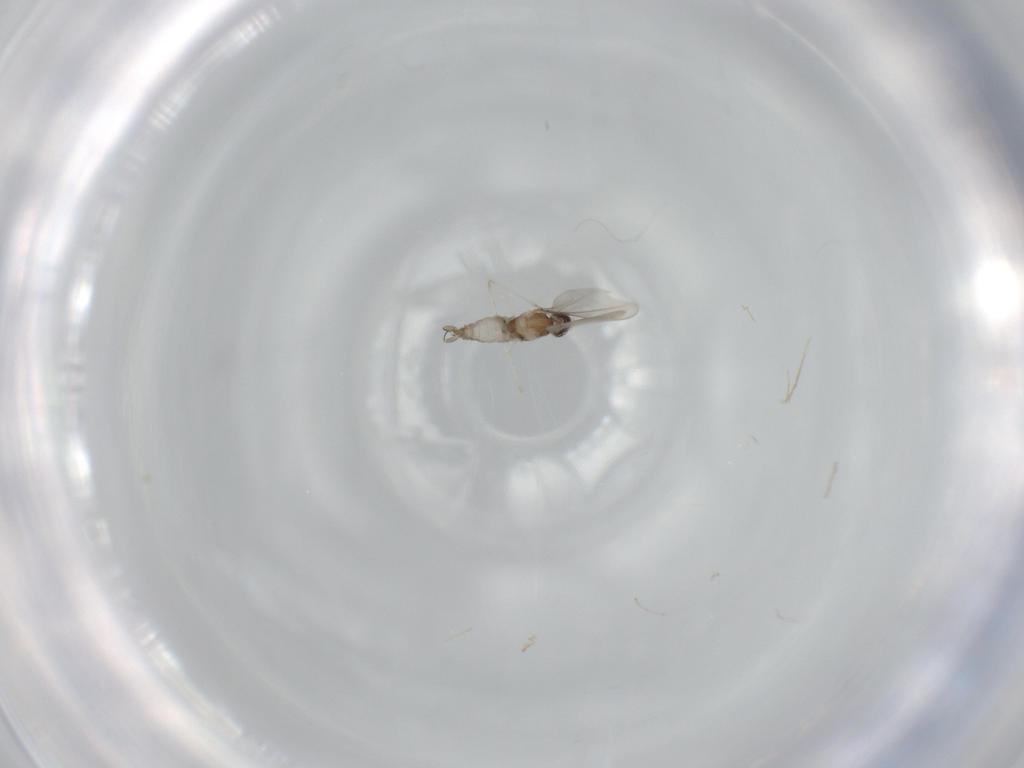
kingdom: Animalia
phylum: Arthropoda
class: Insecta
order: Diptera
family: Cecidomyiidae
